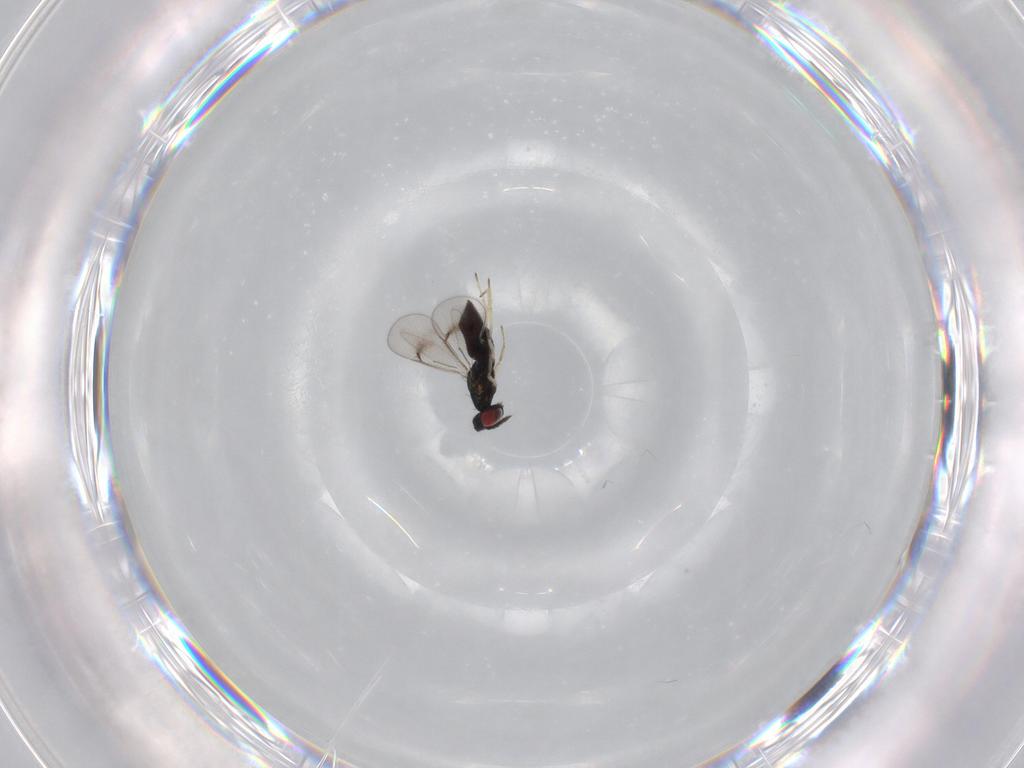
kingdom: Animalia
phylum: Arthropoda
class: Insecta
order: Hymenoptera
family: Eulophidae
